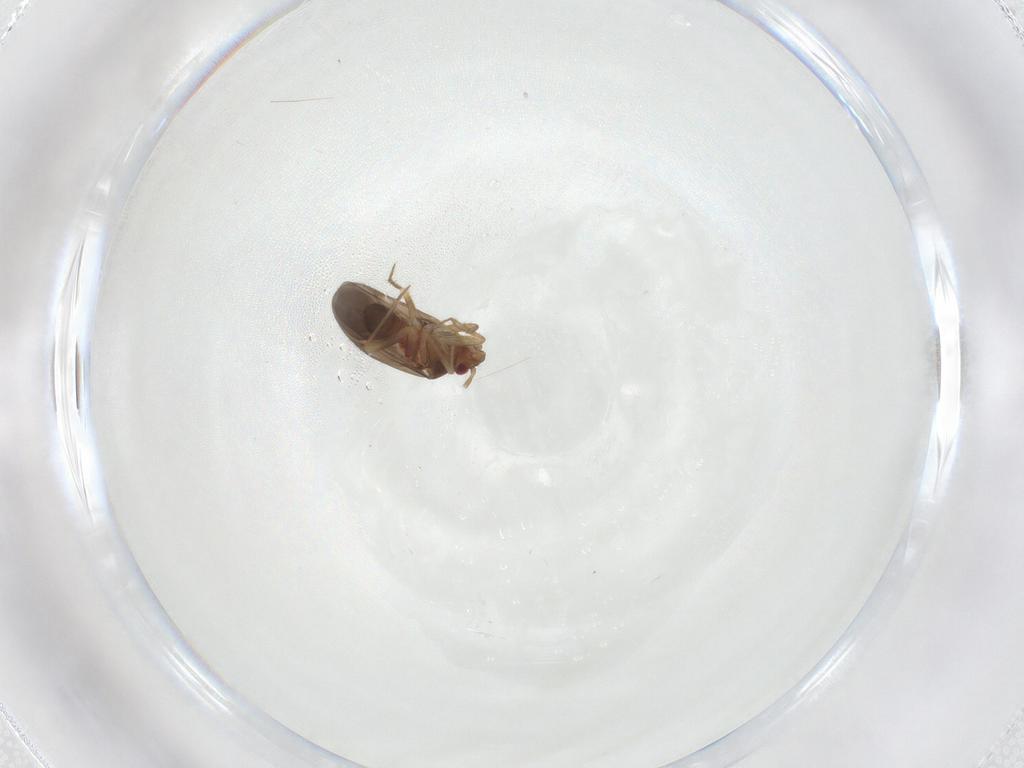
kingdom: Animalia
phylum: Arthropoda
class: Insecta
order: Hemiptera
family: Ceratocombidae
